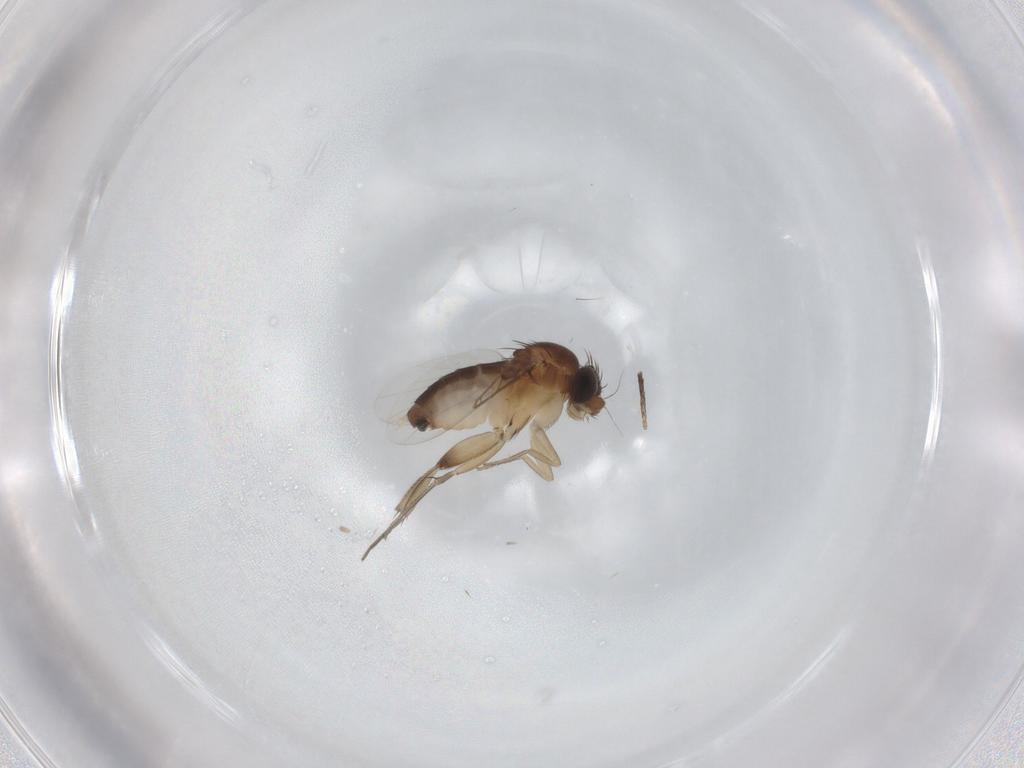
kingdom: Animalia
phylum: Arthropoda
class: Insecta
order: Diptera
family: Phoridae
